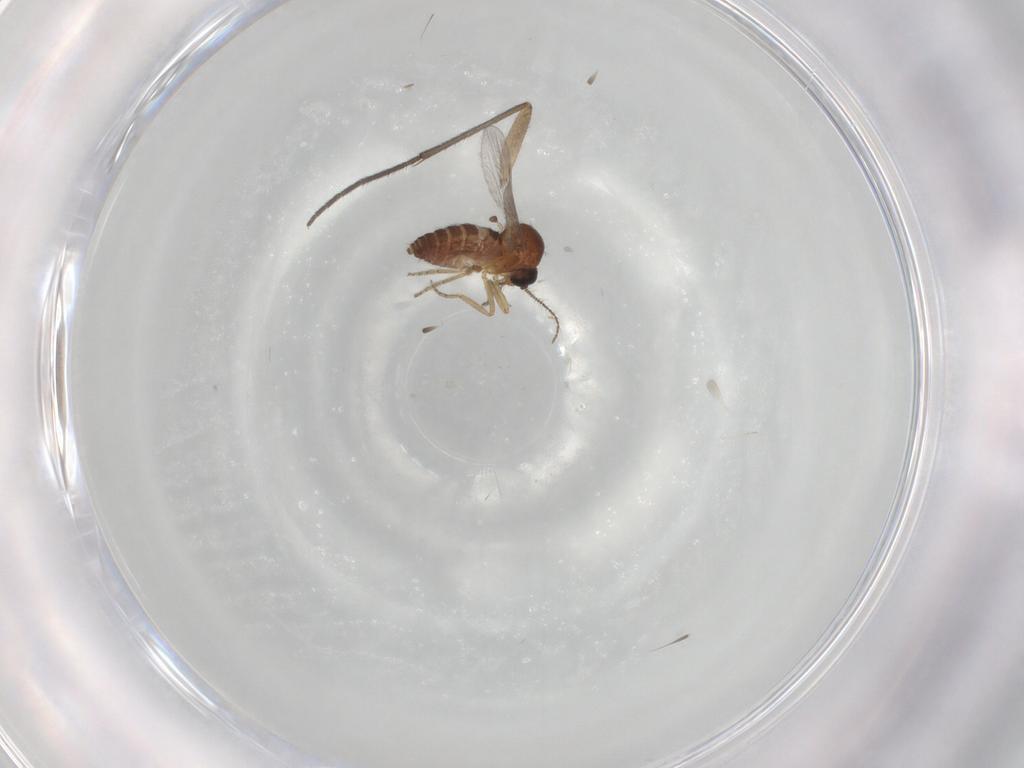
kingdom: Animalia
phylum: Arthropoda
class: Insecta
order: Diptera
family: Ceratopogonidae
